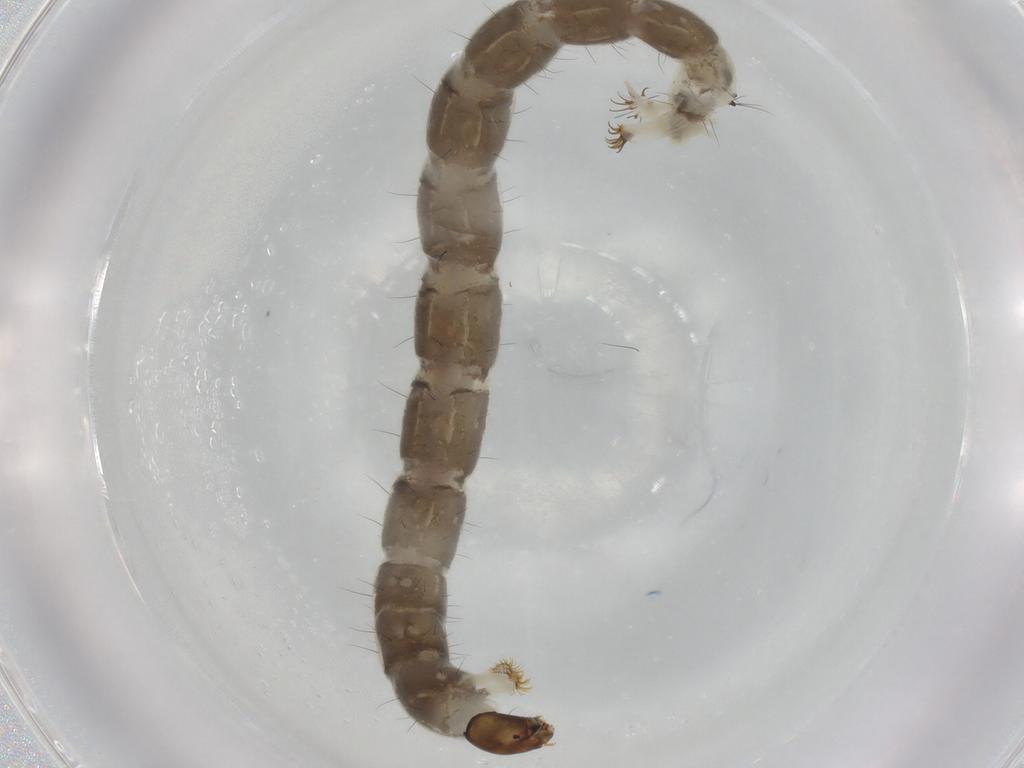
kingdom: Animalia
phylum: Arthropoda
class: Insecta
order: Diptera
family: Chironomidae
